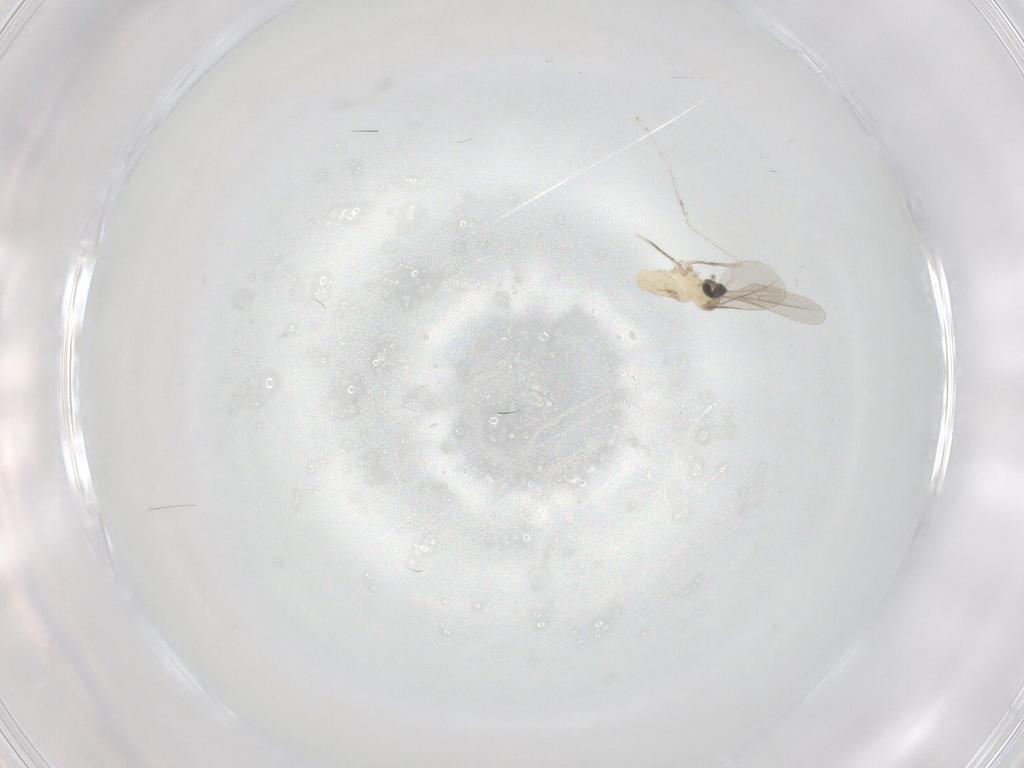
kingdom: Animalia
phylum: Arthropoda
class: Insecta
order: Diptera
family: Cecidomyiidae
